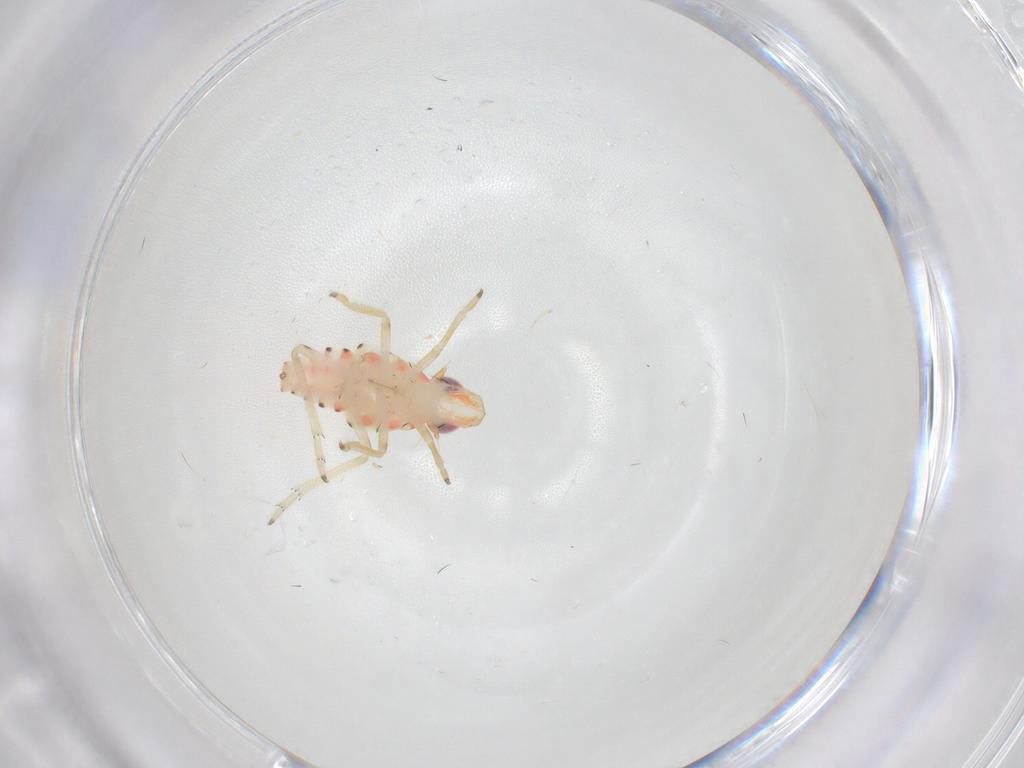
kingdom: Animalia
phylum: Arthropoda
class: Insecta
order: Hemiptera
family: Tropiduchidae
